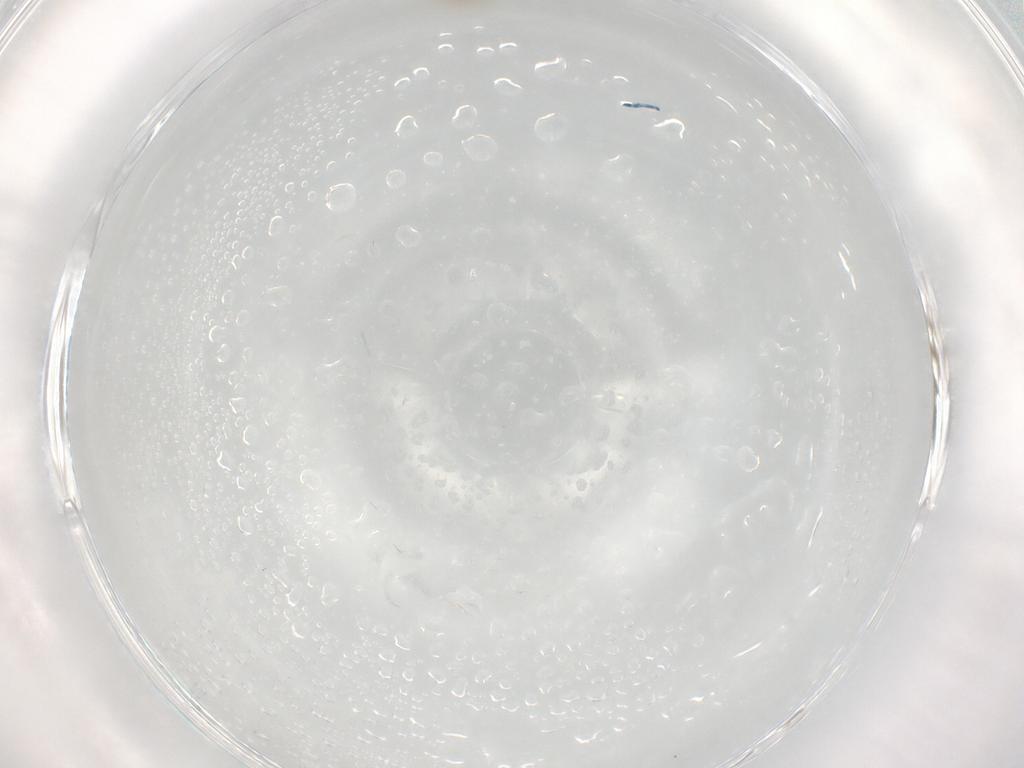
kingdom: Animalia
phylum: Arthropoda
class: Insecta
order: Hymenoptera
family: Platygastridae
